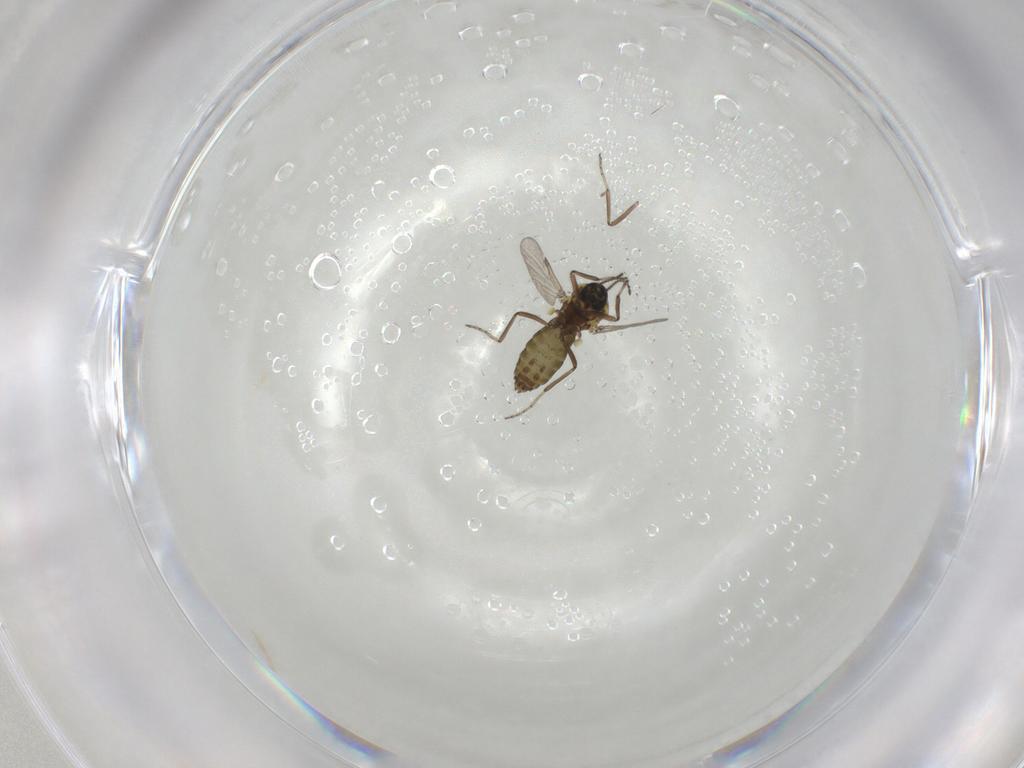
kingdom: Animalia
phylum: Arthropoda
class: Insecta
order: Diptera
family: Ceratopogonidae
